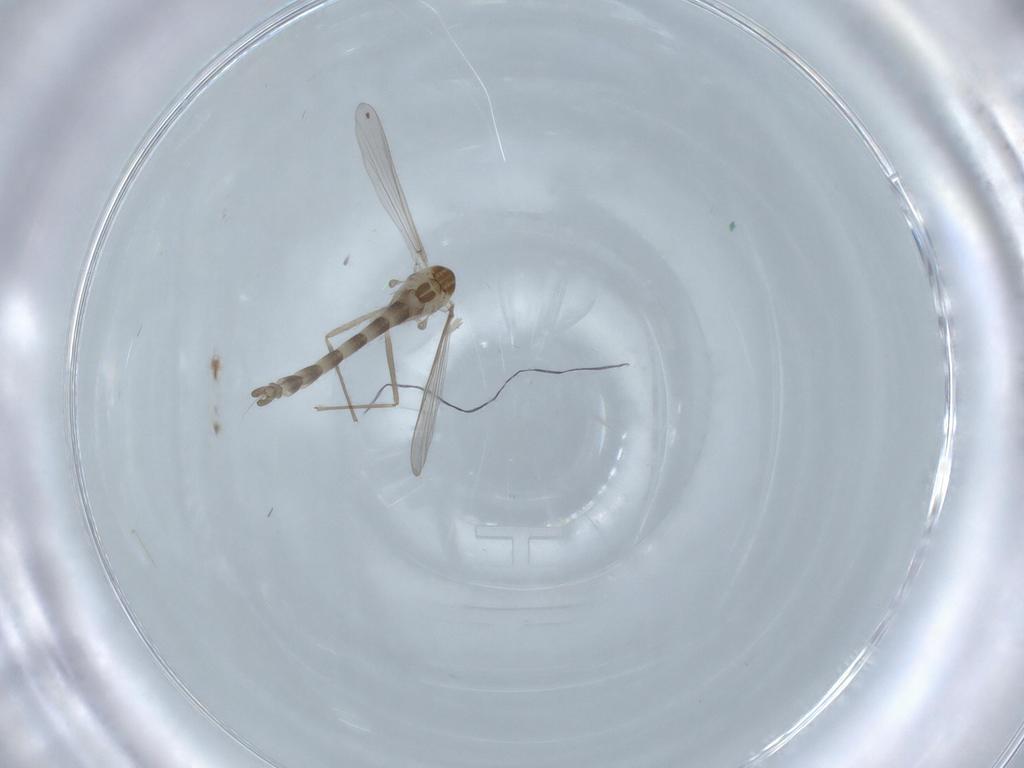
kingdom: Animalia
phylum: Arthropoda
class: Insecta
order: Diptera
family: Chironomidae
